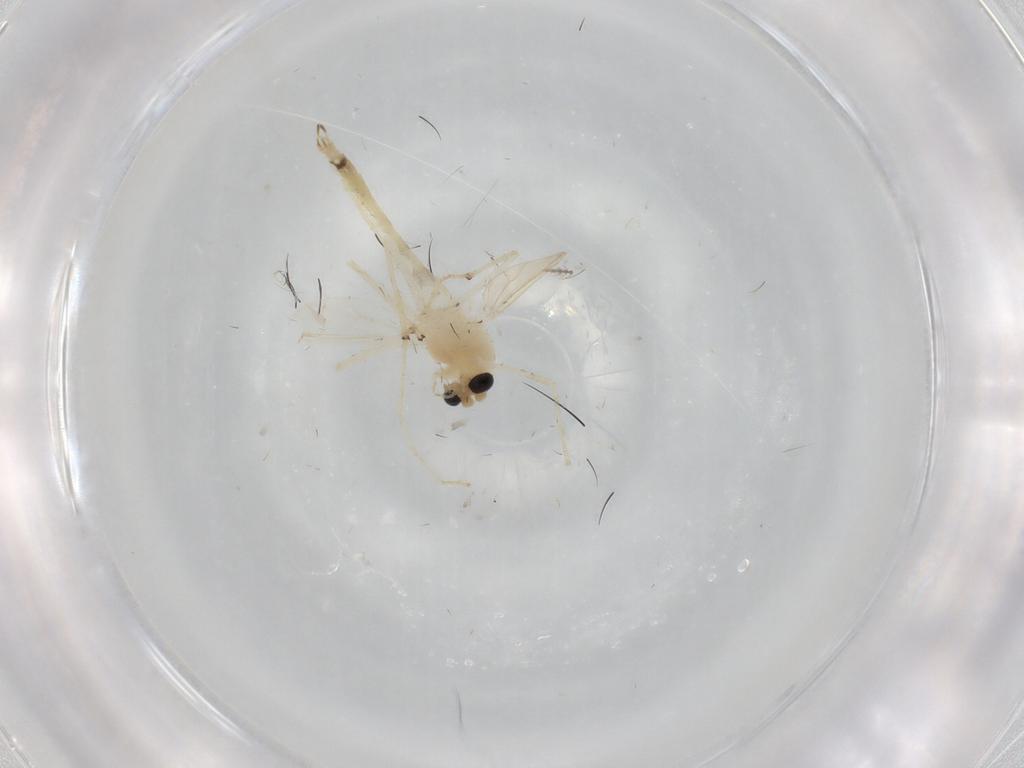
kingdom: Animalia
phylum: Arthropoda
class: Insecta
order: Diptera
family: Chironomidae
